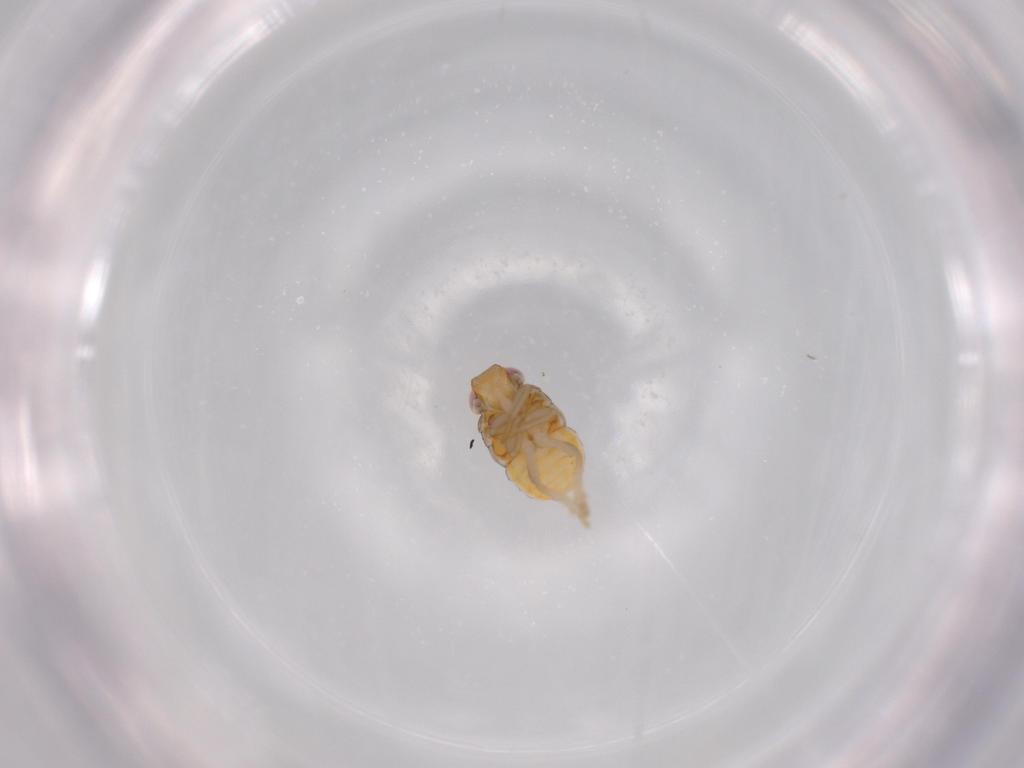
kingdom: Animalia
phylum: Arthropoda
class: Insecta
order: Hemiptera
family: Issidae
